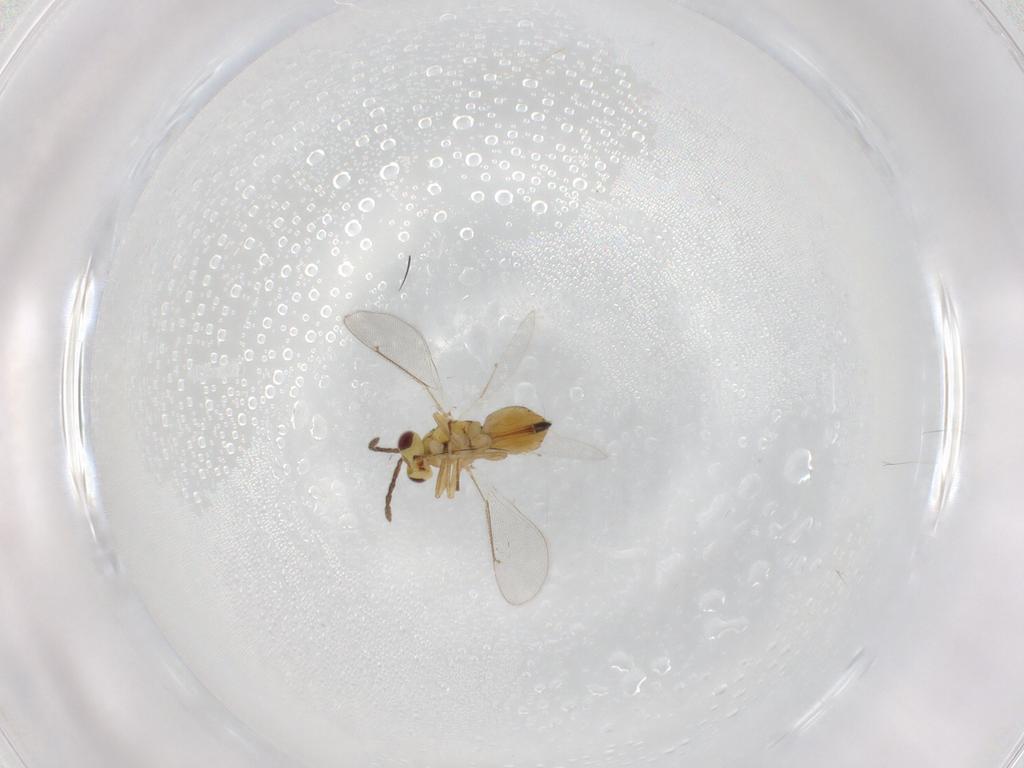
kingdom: Animalia
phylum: Arthropoda
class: Insecta
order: Hymenoptera
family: Eulophidae
